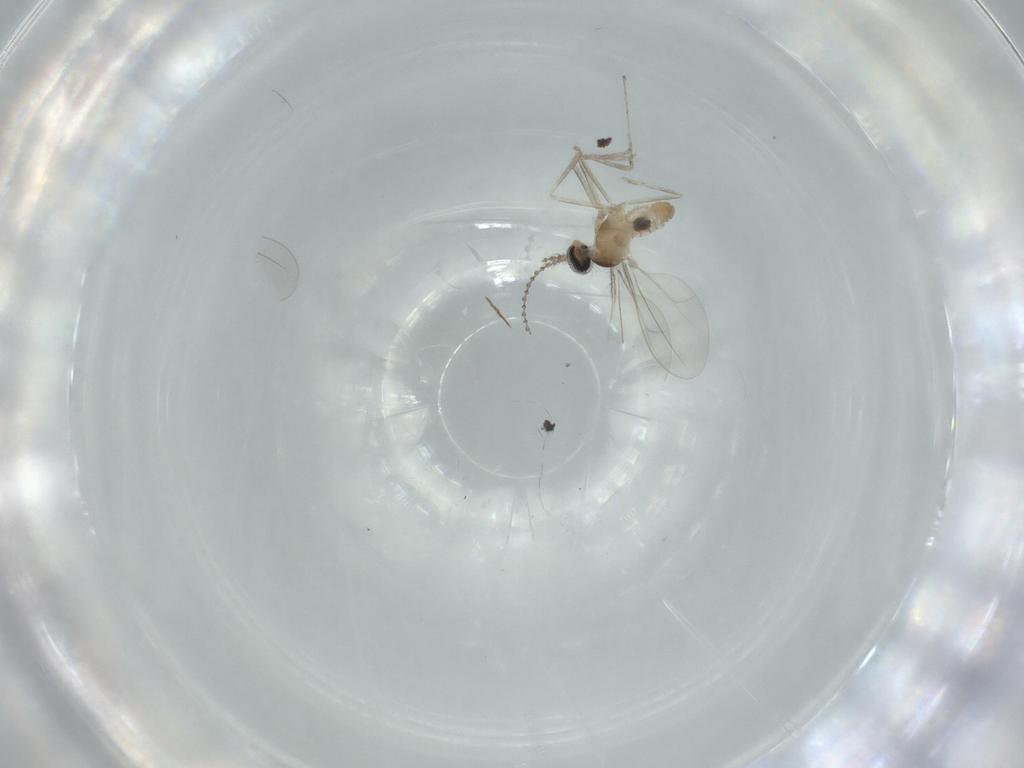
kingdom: Animalia
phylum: Arthropoda
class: Insecta
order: Diptera
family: Cecidomyiidae
